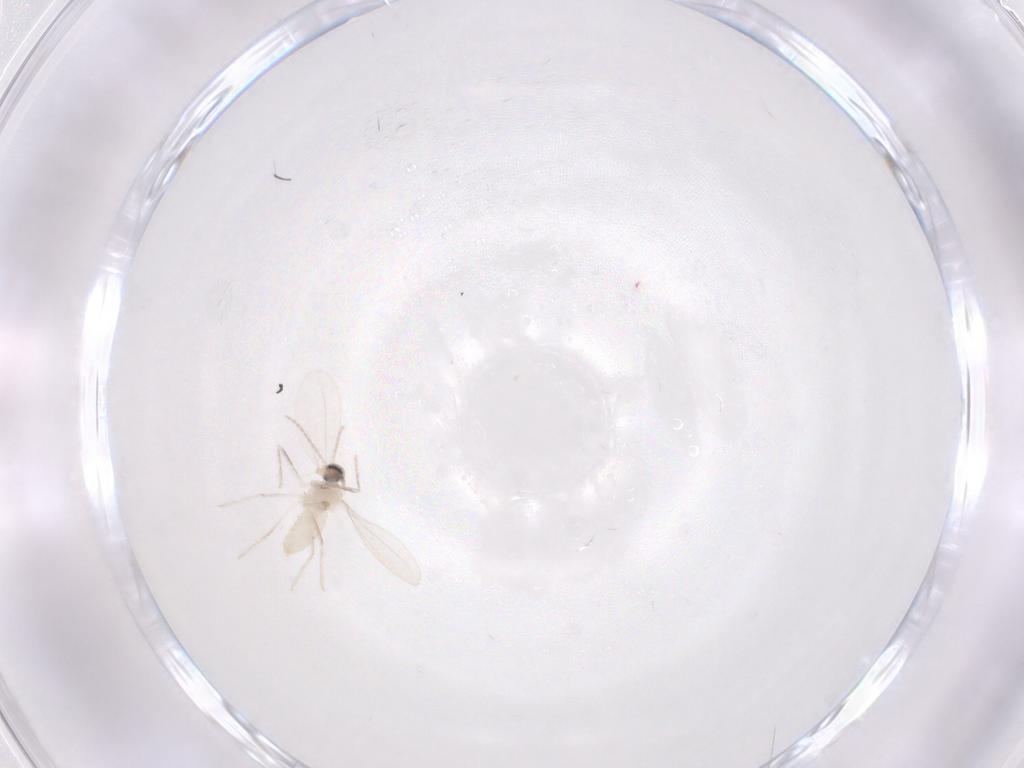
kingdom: Animalia
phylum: Arthropoda
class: Insecta
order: Diptera
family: Cecidomyiidae
